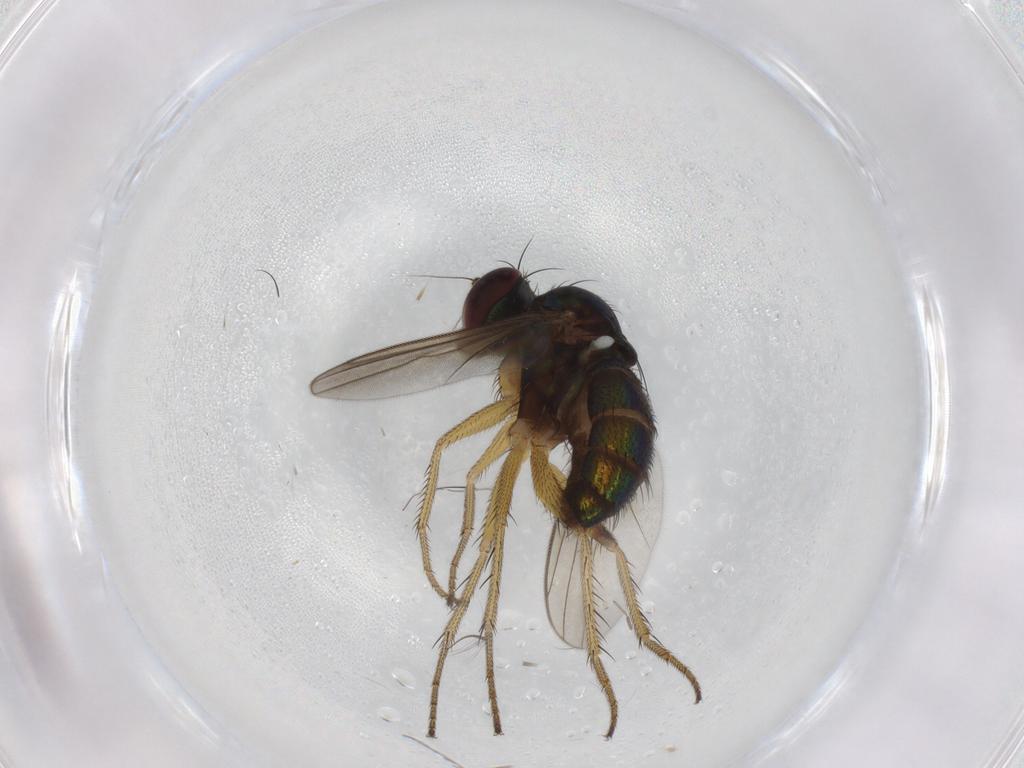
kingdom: Animalia
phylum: Arthropoda
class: Insecta
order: Diptera
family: Dolichopodidae
